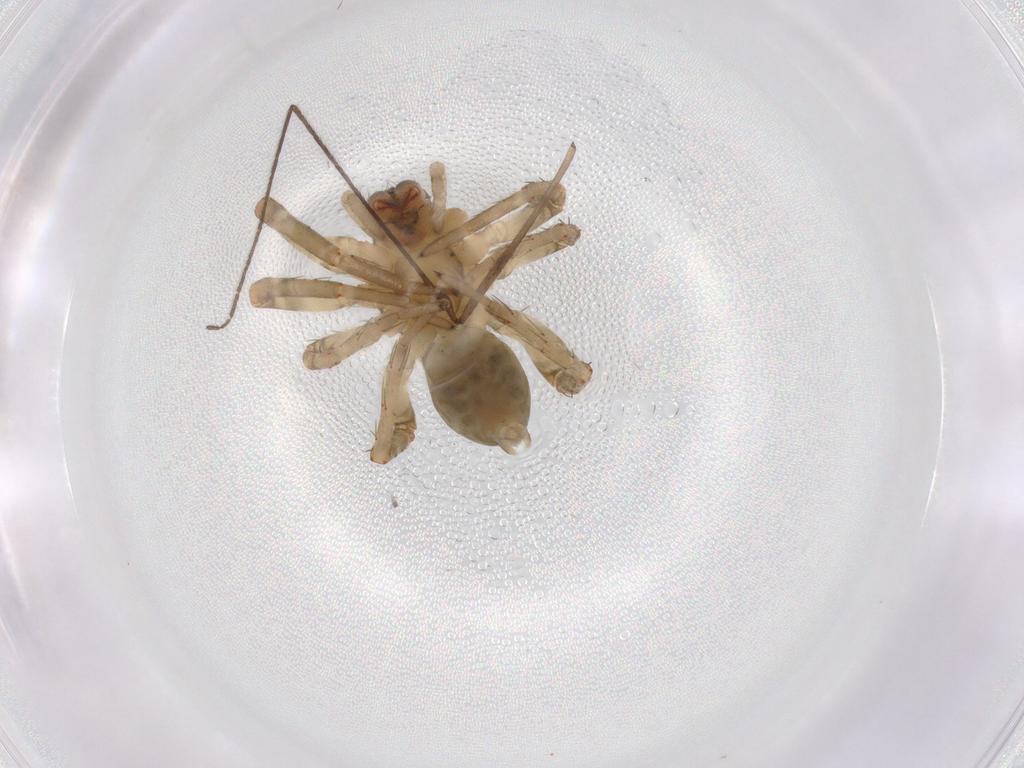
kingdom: Animalia
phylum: Arthropoda
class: Arachnida
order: Araneae
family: Anyphaenidae
